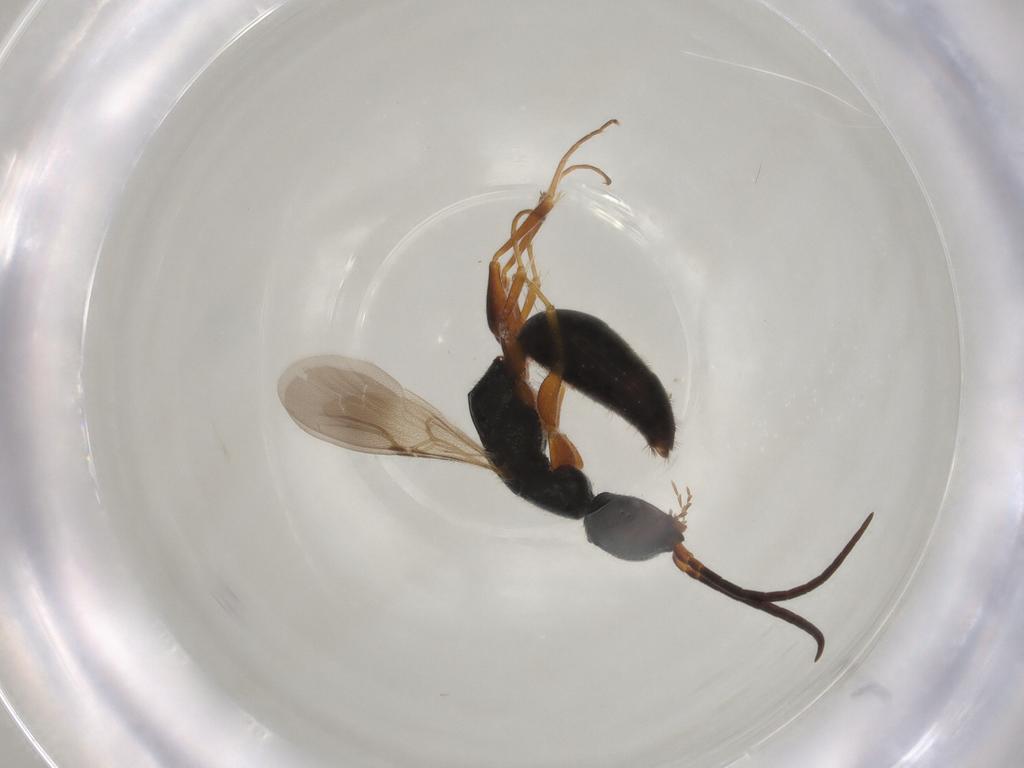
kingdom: Animalia
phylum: Arthropoda
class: Insecta
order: Hymenoptera
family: Bethylidae
